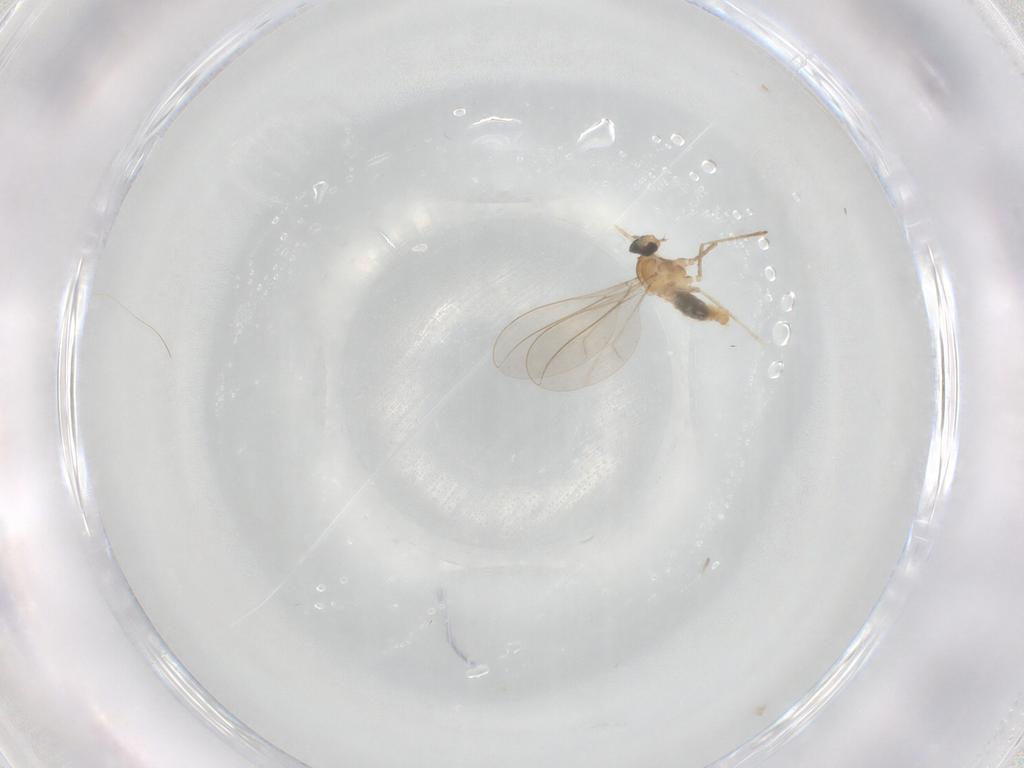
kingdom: Animalia
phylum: Arthropoda
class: Insecta
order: Diptera
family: Cecidomyiidae
